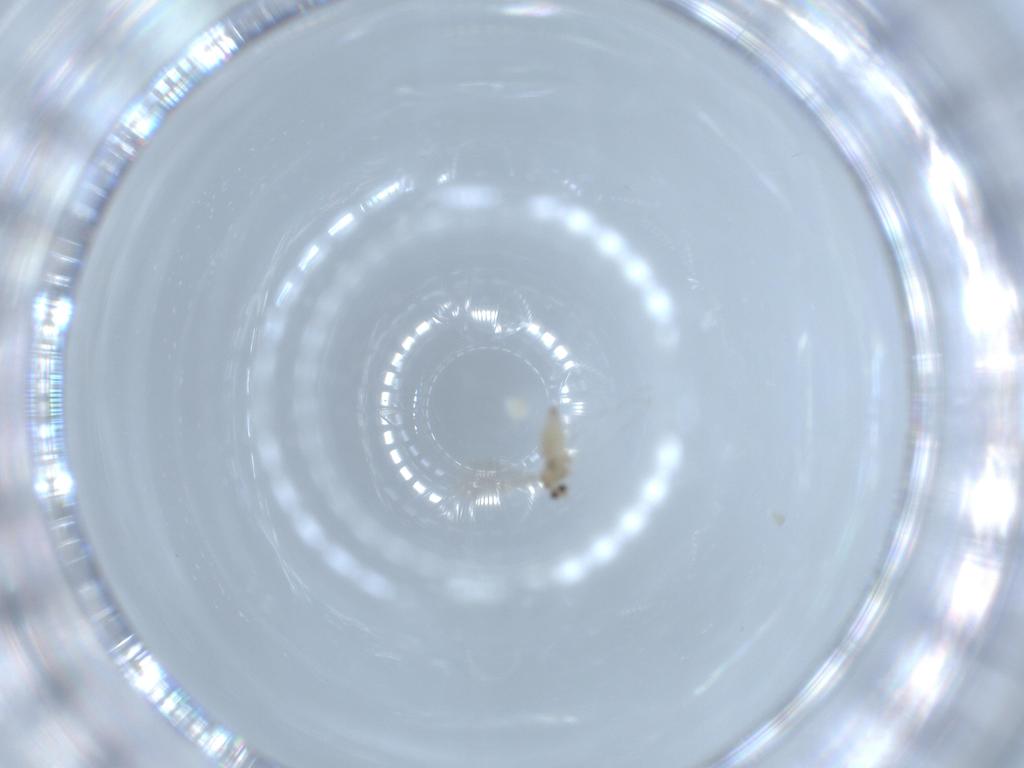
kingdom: Animalia
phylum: Arthropoda
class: Insecta
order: Diptera
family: Cecidomyiidae
